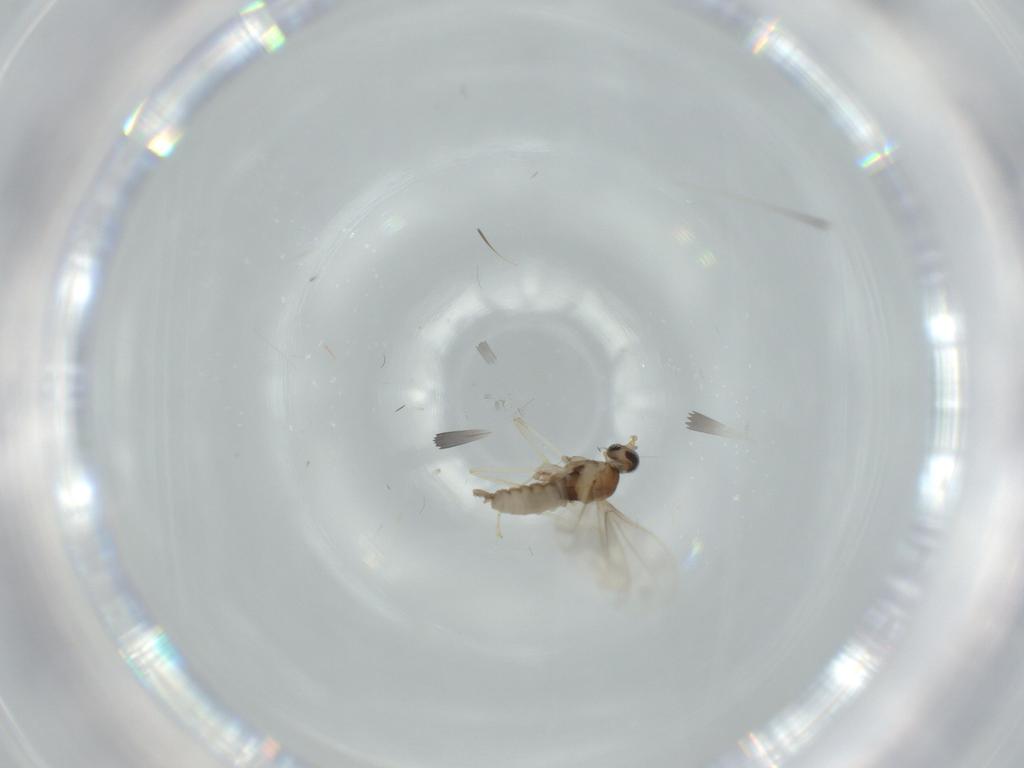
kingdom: Animalia
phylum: Arthropoda
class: Insecta
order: Diptera
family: Cecidomyiidae
